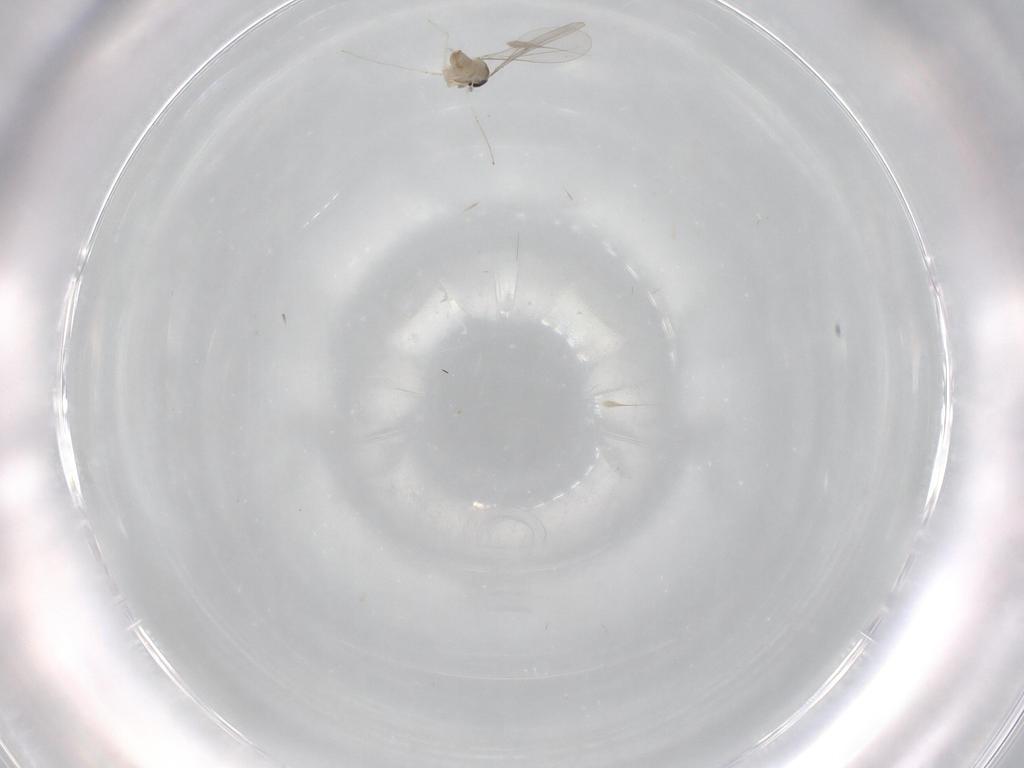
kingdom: Animalia
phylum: Arthropoda
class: Insecta
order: Diptera
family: Cecidomyiidae
